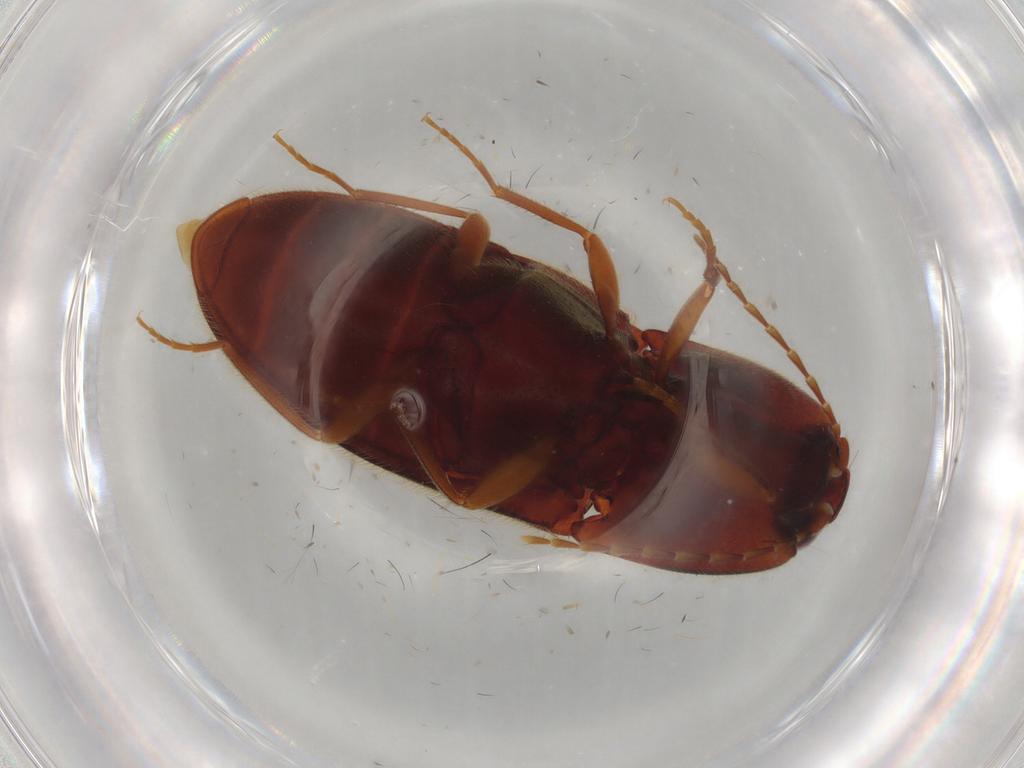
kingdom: Animalia
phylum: Arthropoda
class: Insecta
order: Coleoptera
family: Elateridae
